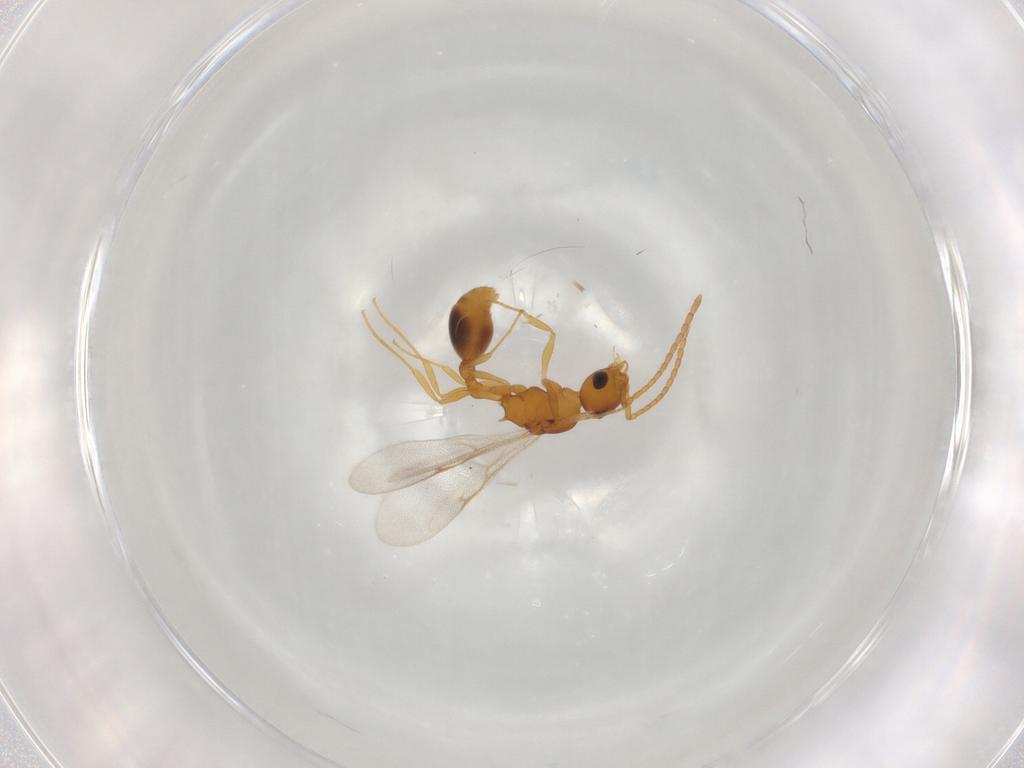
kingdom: Animalia
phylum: Arthropoda
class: Insecta
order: Hymenoptera
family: Formicidae
